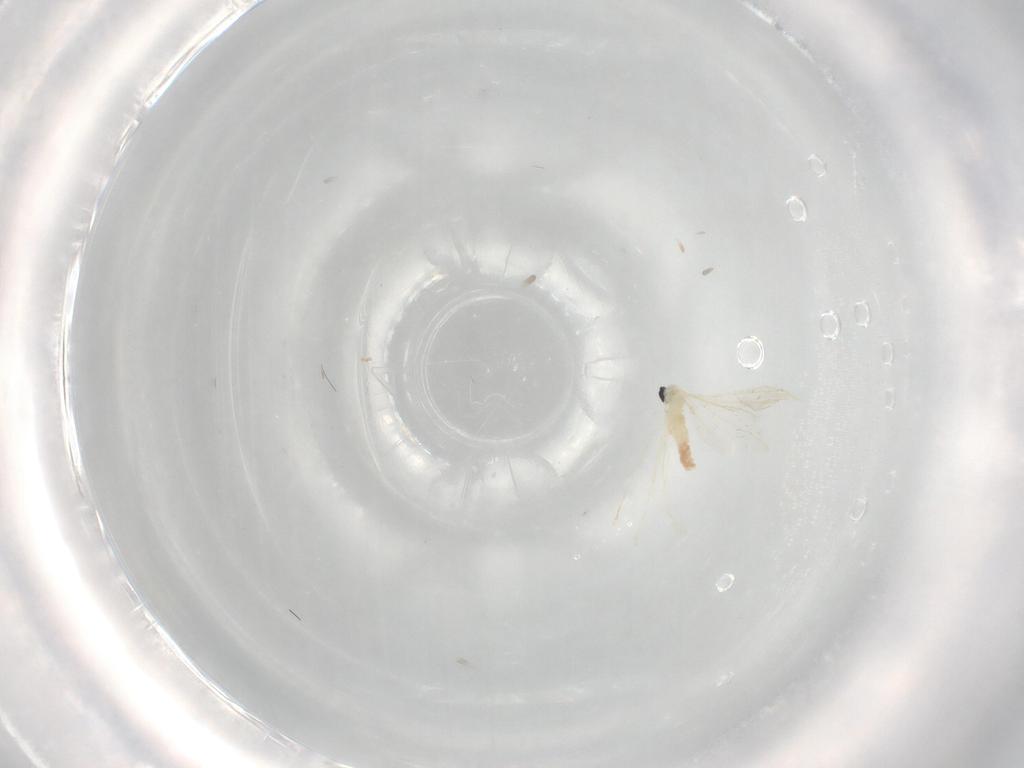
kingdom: Animalia
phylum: Arthropoda
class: Insecta
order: Diptera
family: Cecidomyiidae
